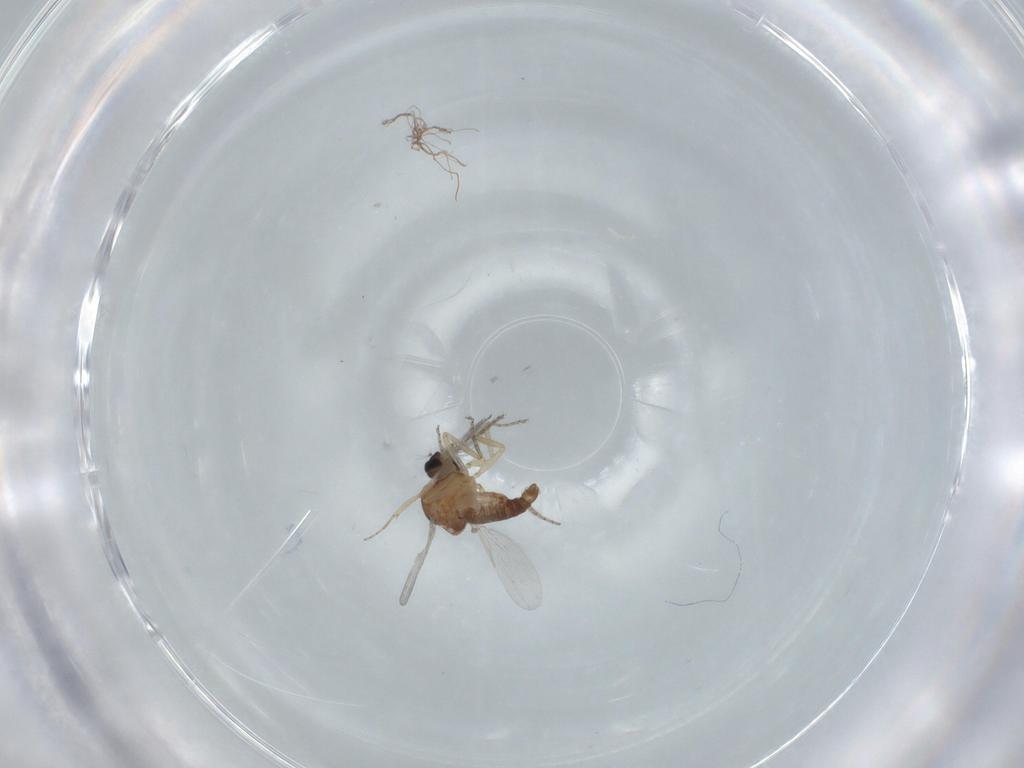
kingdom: Animalia
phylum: Arthropoda
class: Insecta
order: Diptera
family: Ceratopogonidae
